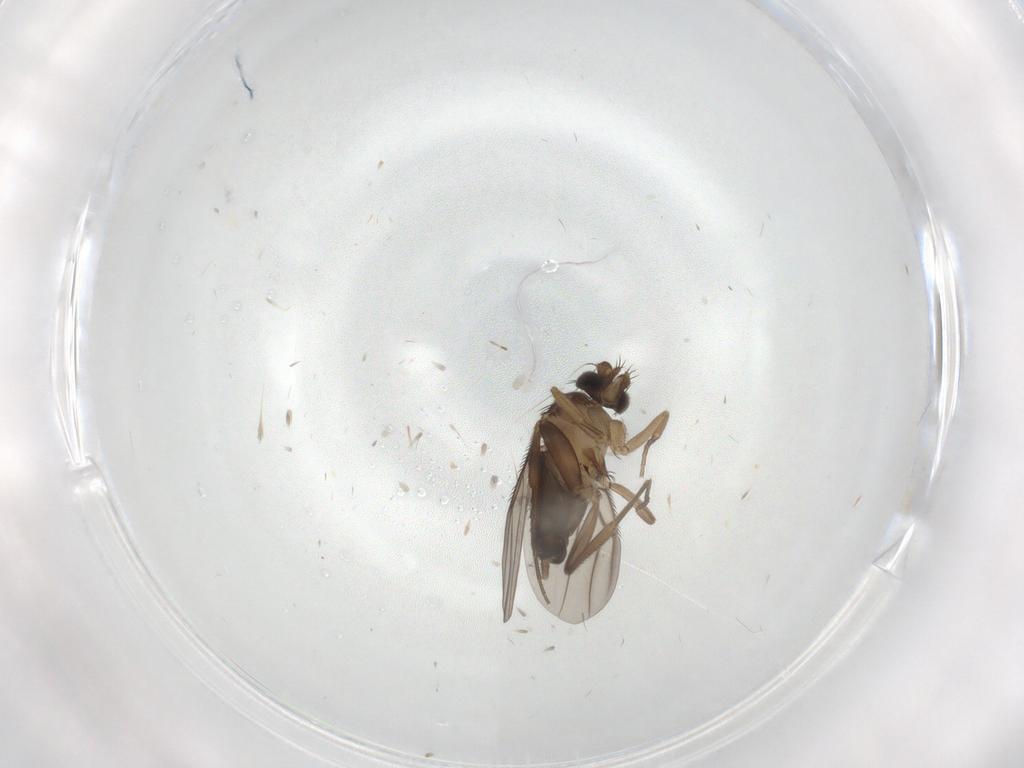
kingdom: Animalia
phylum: Arthropoda
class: Insecta
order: Diptera
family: Phoridae
